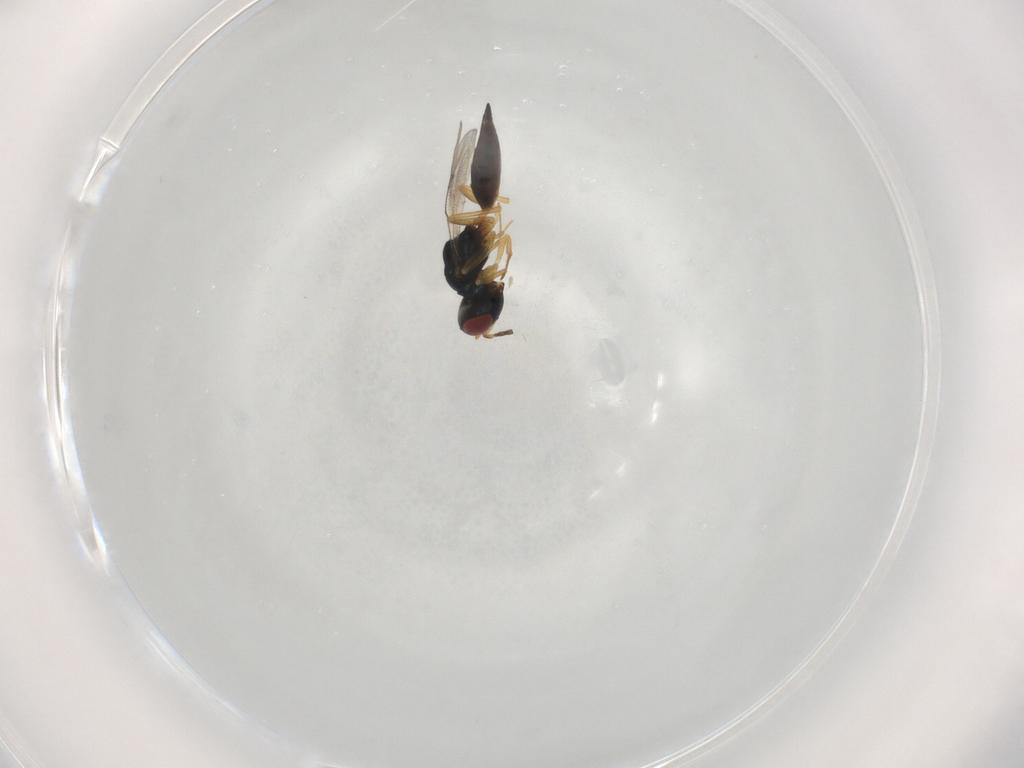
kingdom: Animalia
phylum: Arthropoda
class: Insecta
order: Hymenoptera
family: Pteromalidae
